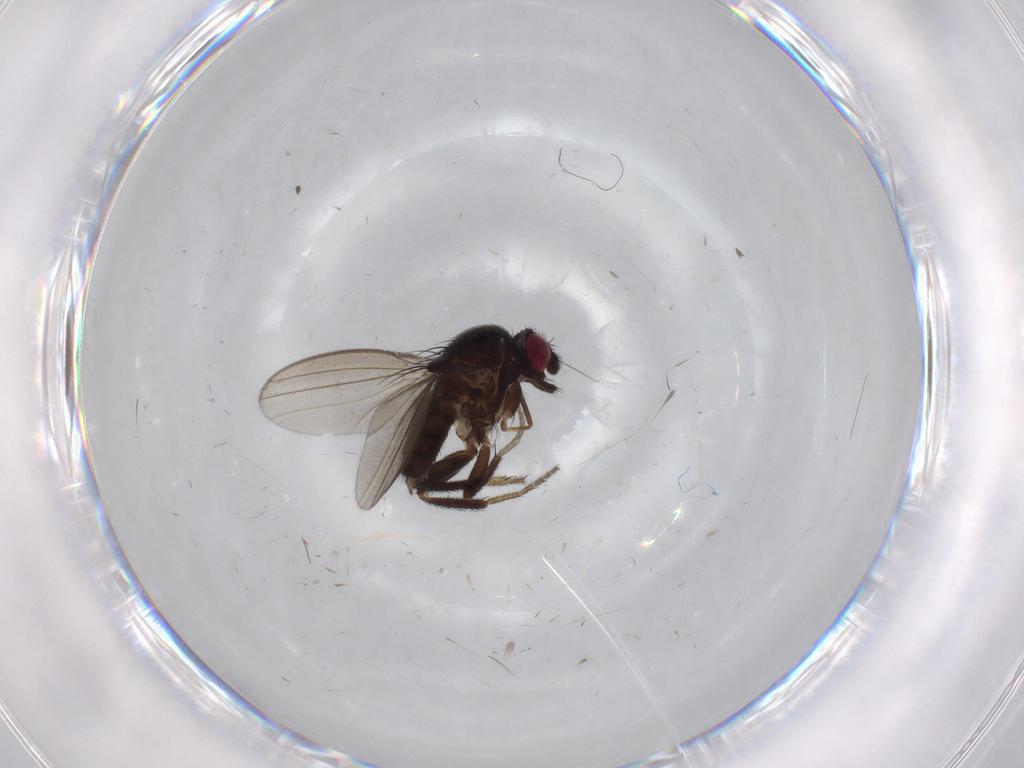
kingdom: Animalia
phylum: Arthropoda
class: Insecta
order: Diptera
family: Milichiidae
